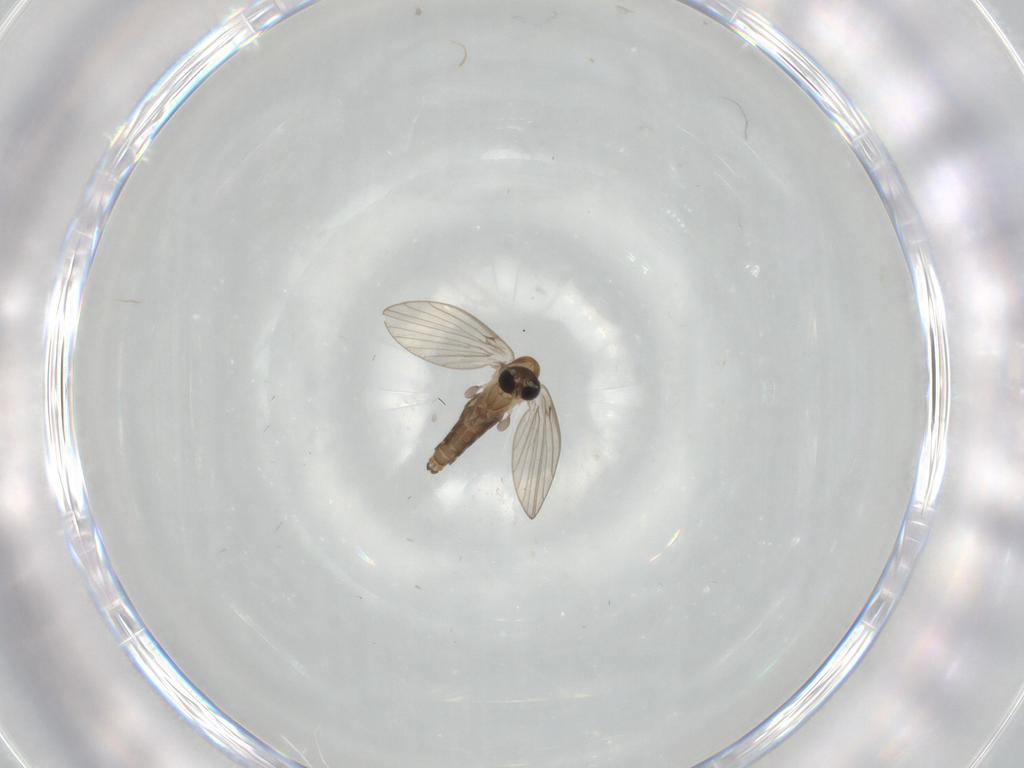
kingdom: Animalia
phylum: Arthropoda
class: Insecta
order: Diptera
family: Psychodidae
